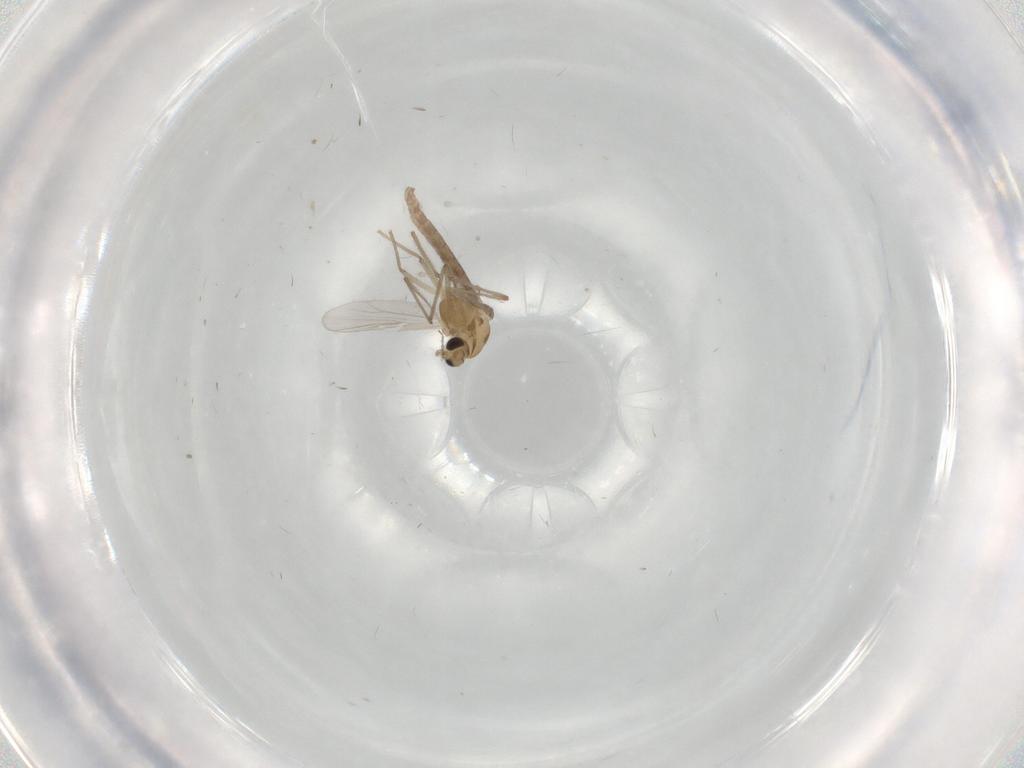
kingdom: Animalia
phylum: Arthropoda
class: Insecta
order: Diptera
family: Chironomidae
